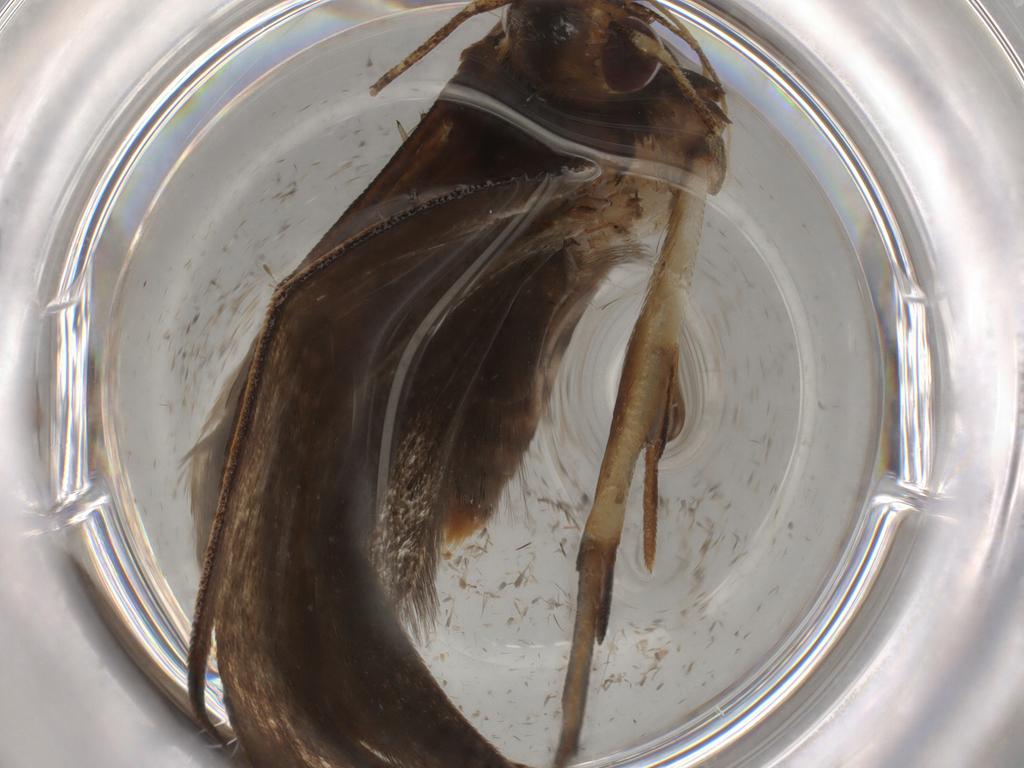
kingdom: Animalia
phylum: Arthropoda
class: Insecta
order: Lepidoptera
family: Gelechiidae
